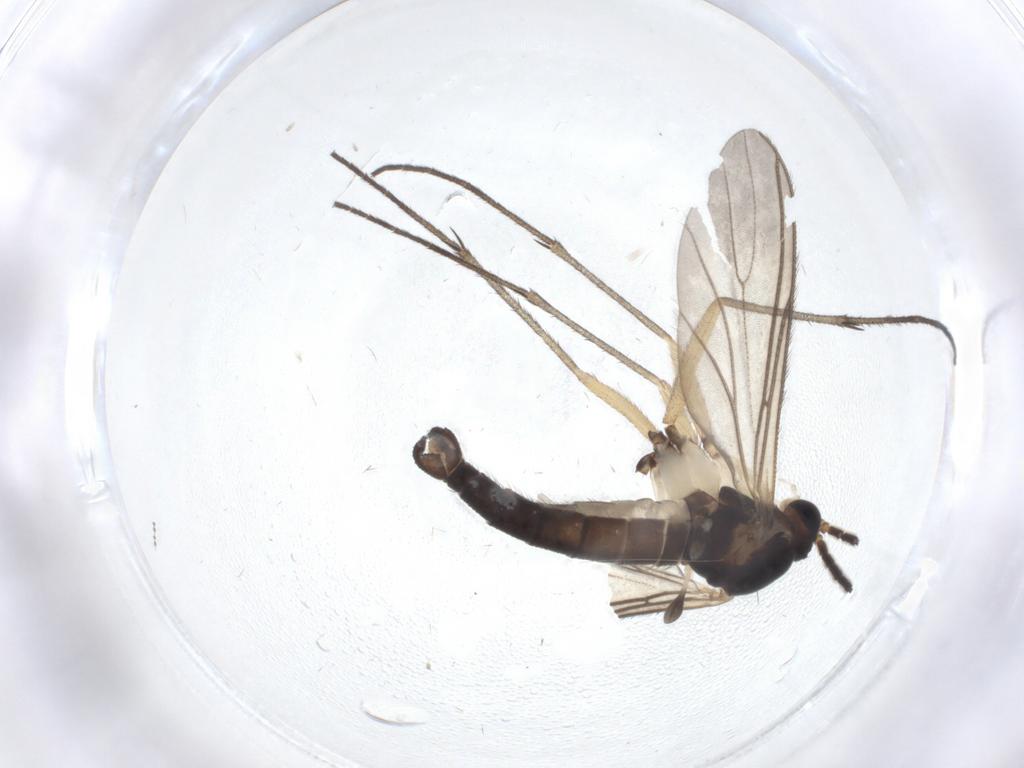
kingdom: Animalia
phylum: Arthropoda
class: Insecta
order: Diptera
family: Sciaridae
